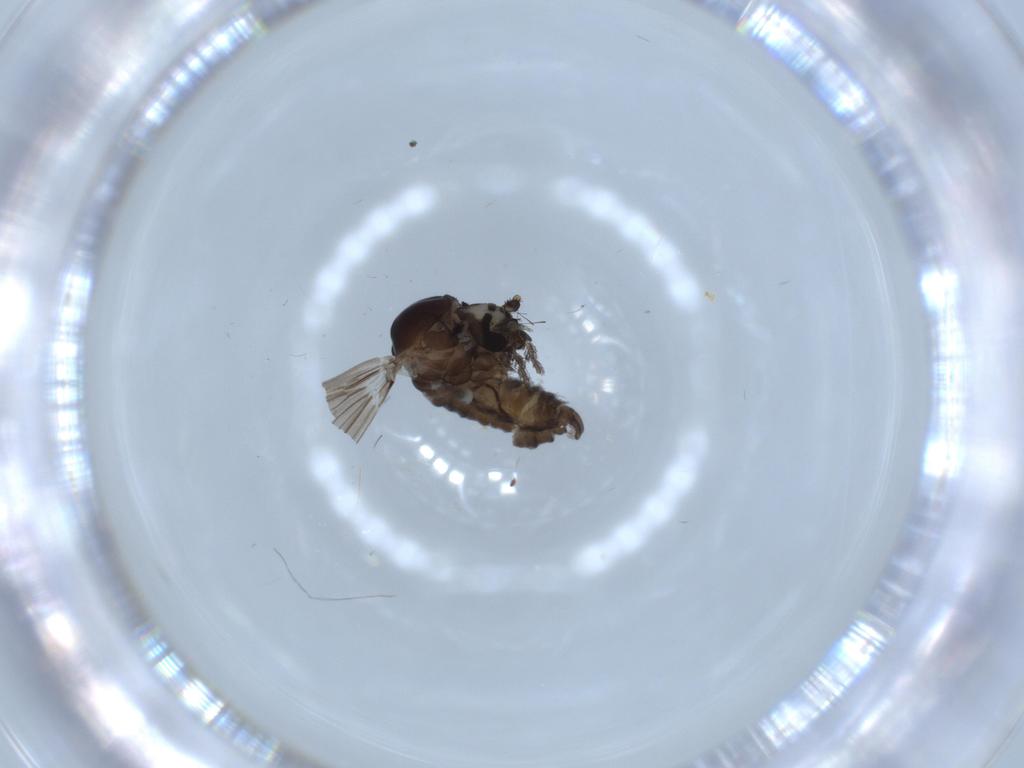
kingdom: Animalia
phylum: Arthropoda
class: Insecta
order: Diptera
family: Psychodidae
